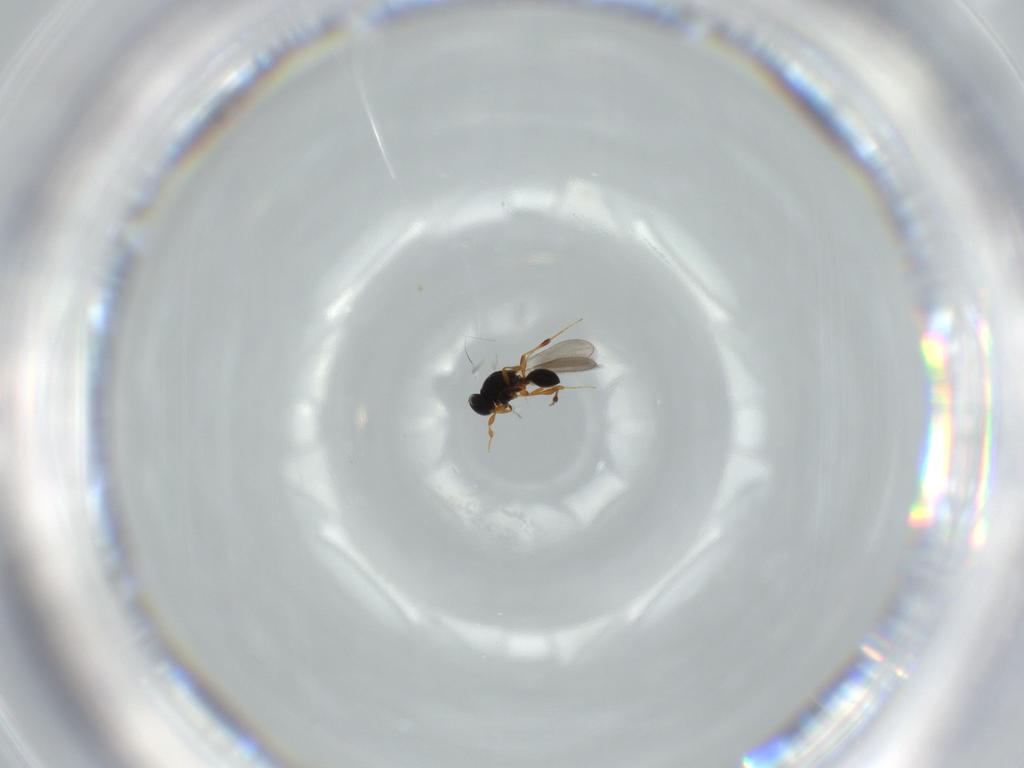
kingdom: Animalia
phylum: Arthropoda
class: Insecta
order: Hymenoptera
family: Platygastridae
